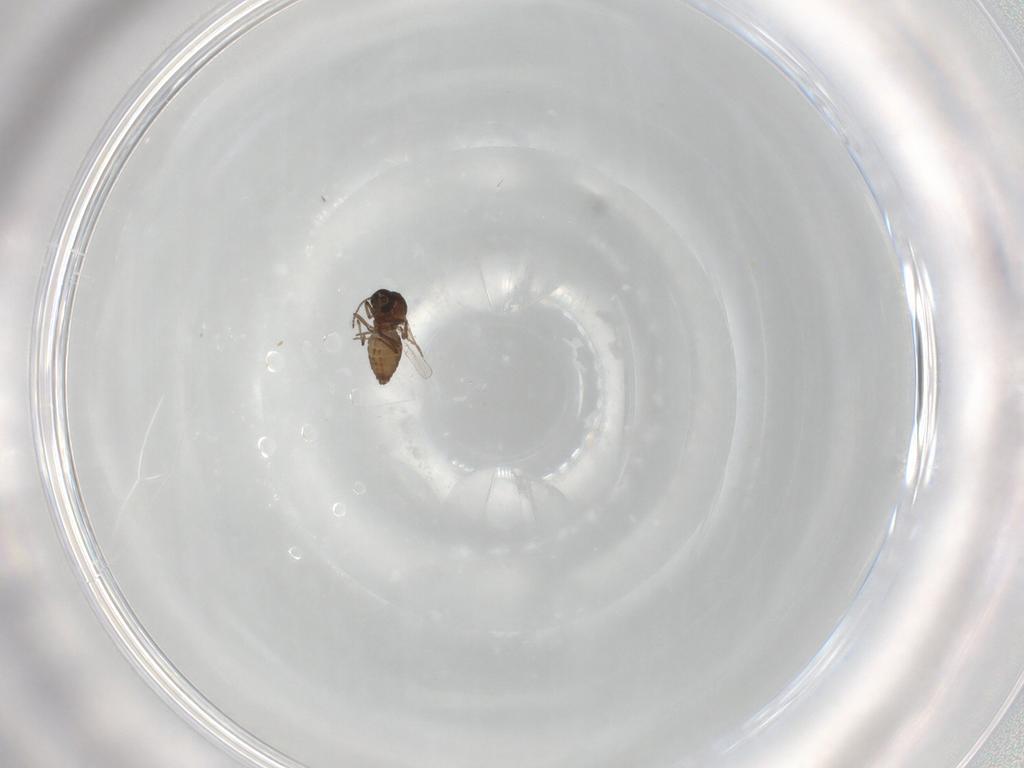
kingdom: Animalia
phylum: Arthropoda
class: Insecta
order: Diptera
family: Ceratopogonidae
